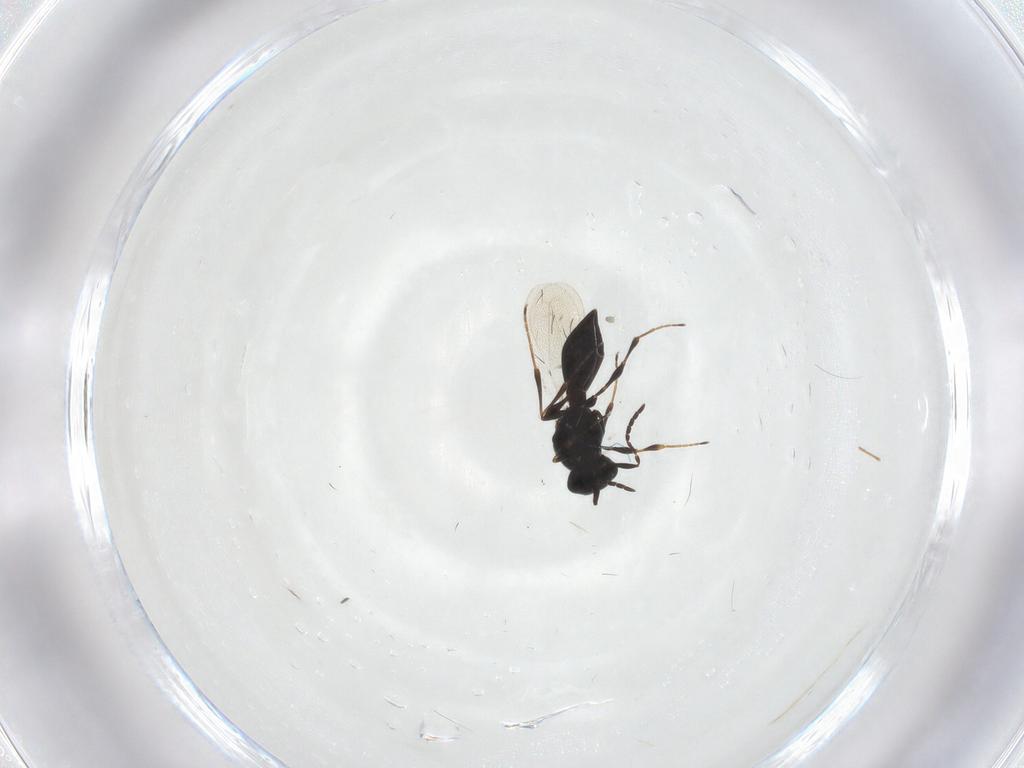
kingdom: Animalia
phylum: Arthropoda
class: Insecta
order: Hymenoptera
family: Platygastridae
